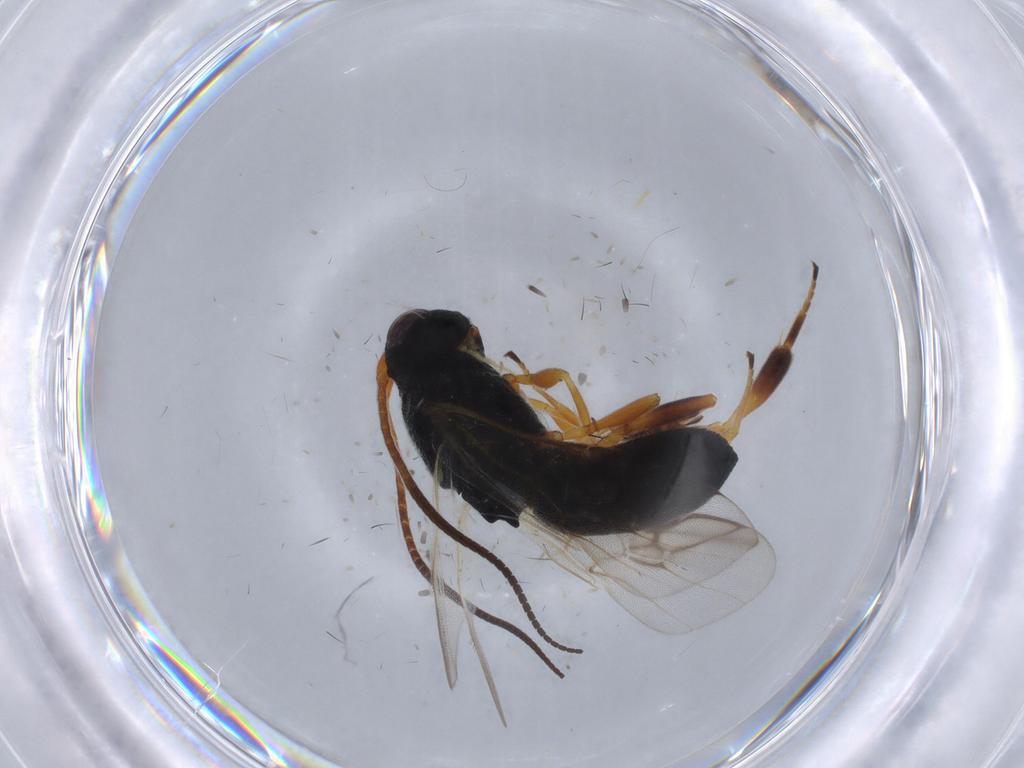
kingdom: Animalia
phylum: Arthropoda
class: Insecta
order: Hymenoptera
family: Braconidae
